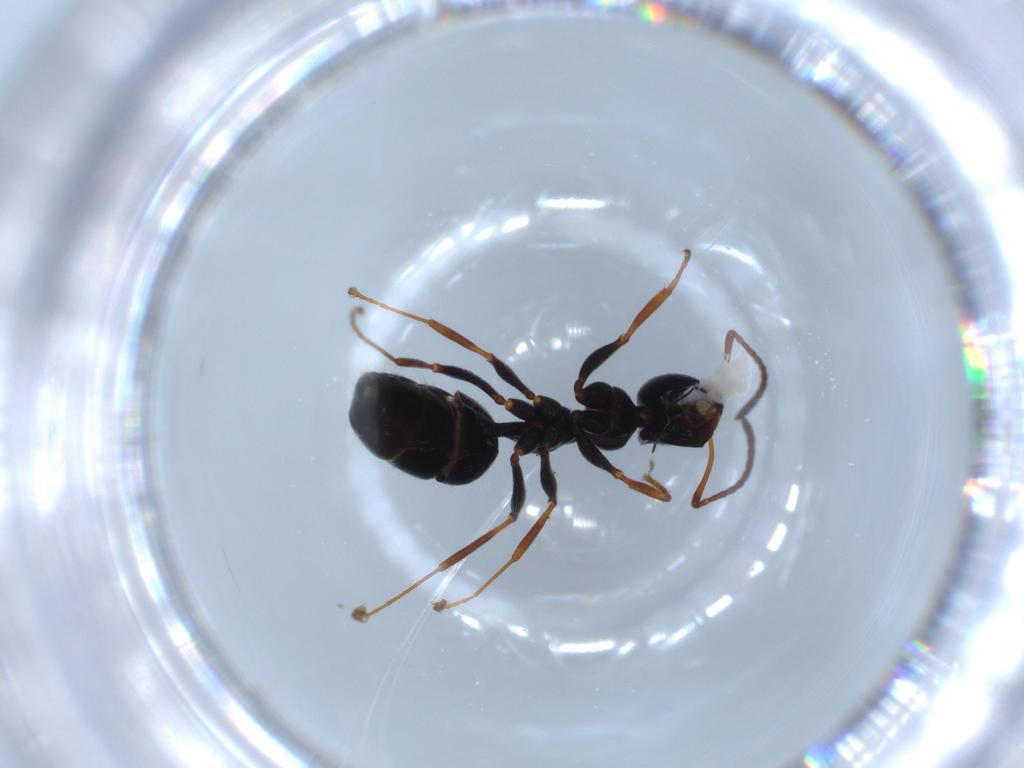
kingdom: Animalia
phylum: Arthropoda
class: Insecta
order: Hymenoptera
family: Formicidae
